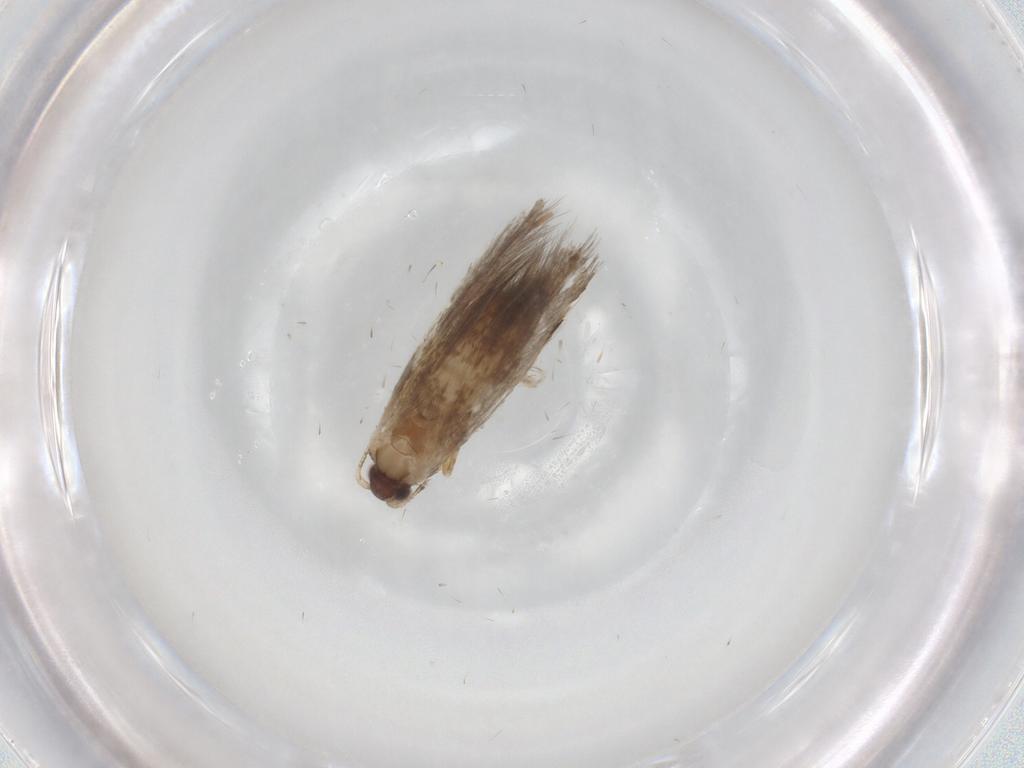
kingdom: Animalia
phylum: Arthropoda
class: Insecta
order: Lepidoptera
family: Tineidae
